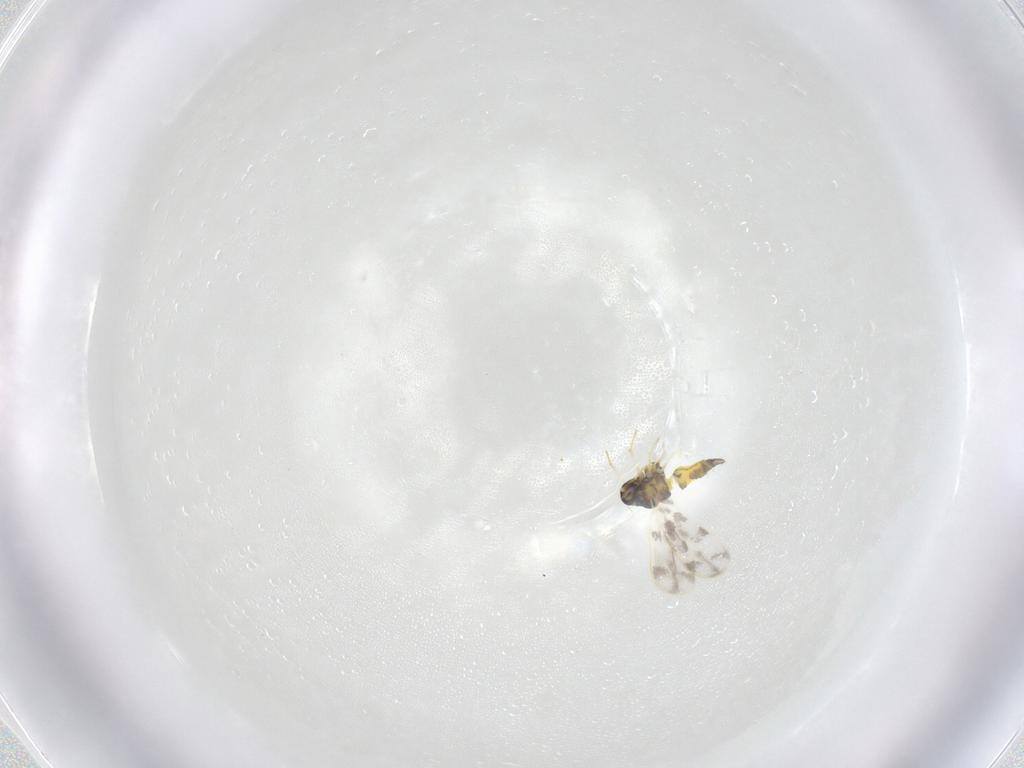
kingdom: Animalia
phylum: Arthropoda
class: Insecta
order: Hemiptera
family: Aleyrodidae
